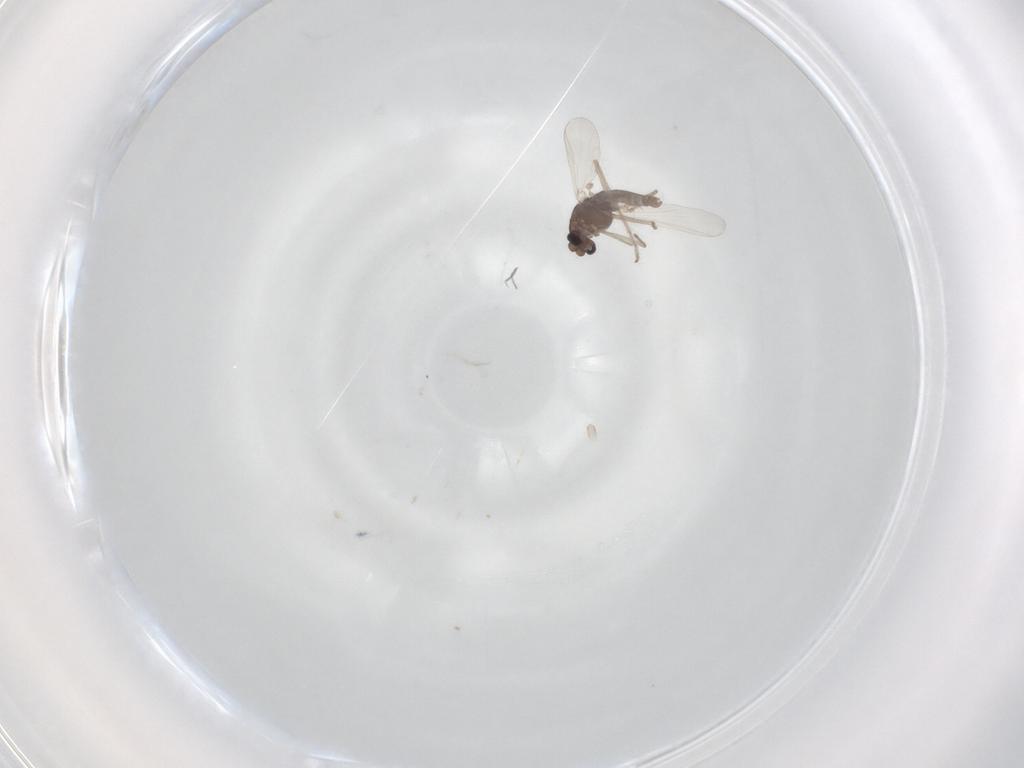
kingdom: Animalia
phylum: Arthropoda
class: Insecta
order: Diptera
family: Chironomidae
